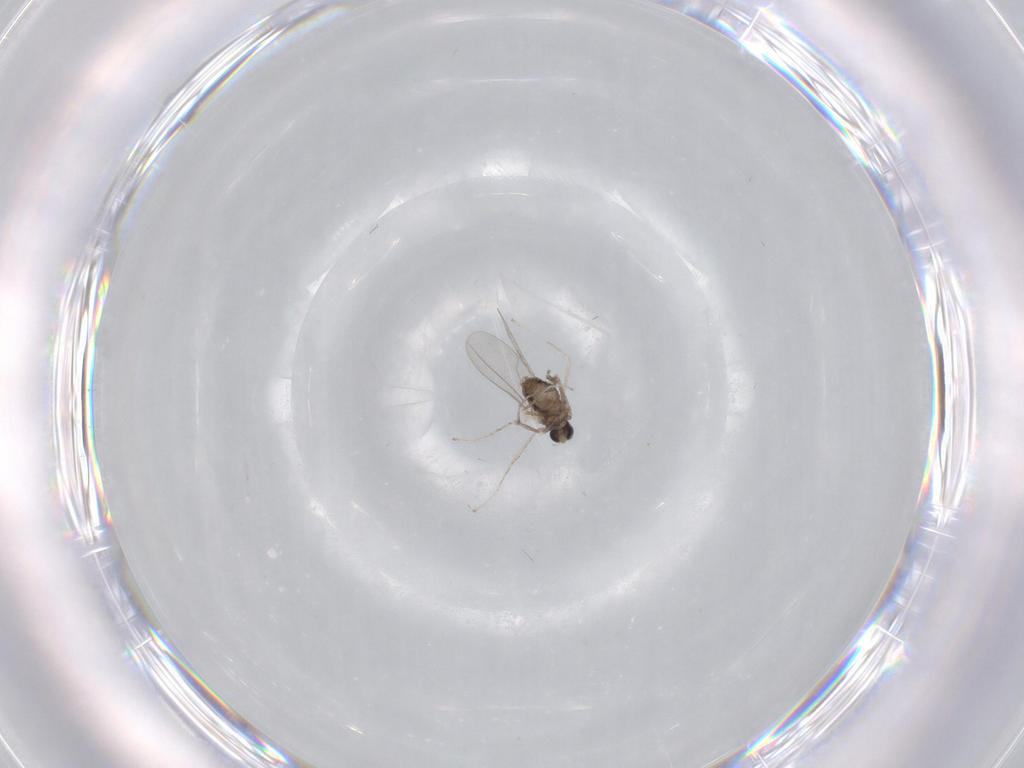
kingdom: Animalia
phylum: Arthropoda
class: Insecta
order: Diptera
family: Cecidomyiidae
